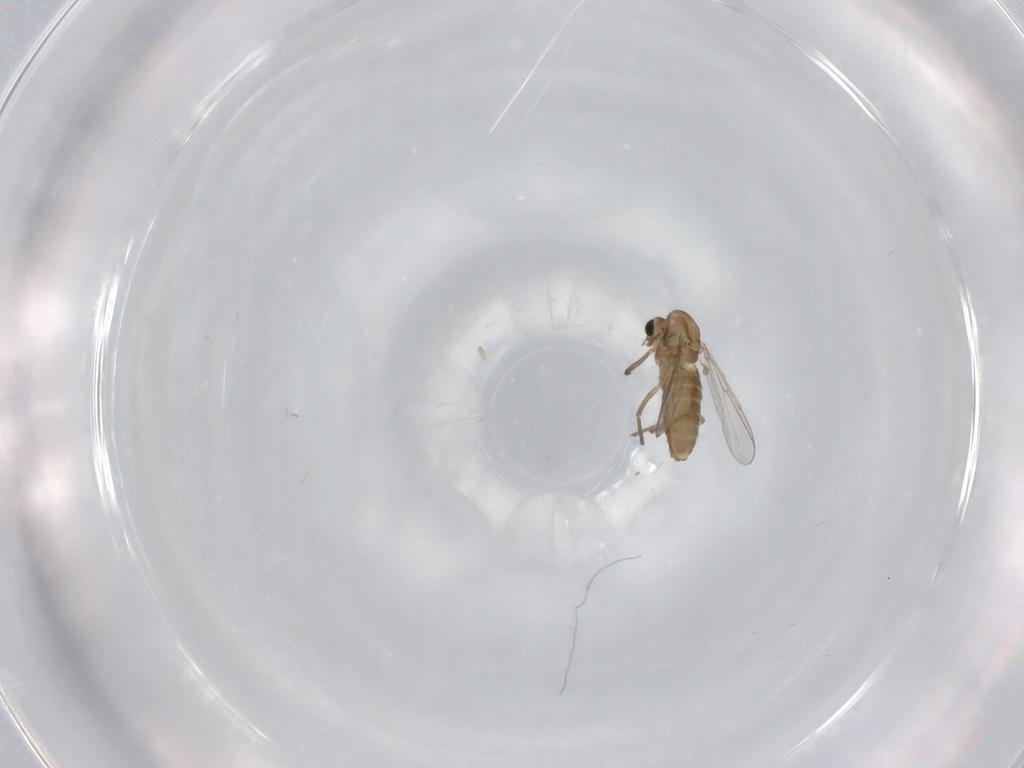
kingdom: Animalia
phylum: Arthropoda
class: Insecta
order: Diptera
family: Chironomidae
